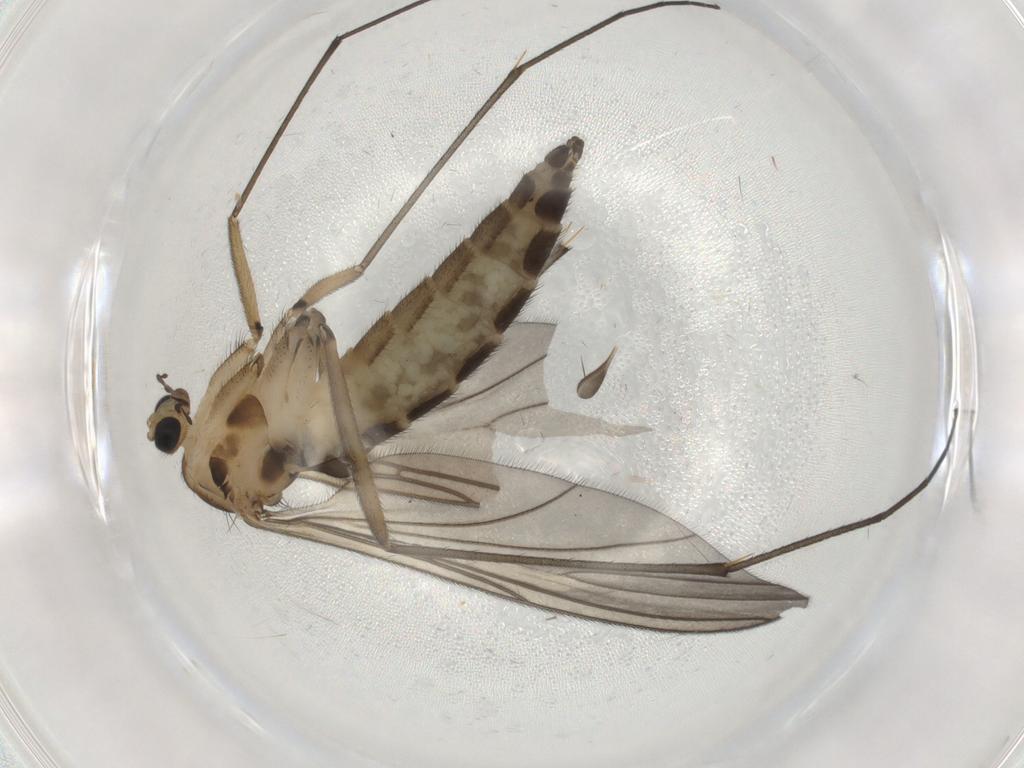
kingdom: Animalia
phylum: Arthropoda
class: Insecta
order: Diptera
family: Sciaridae
